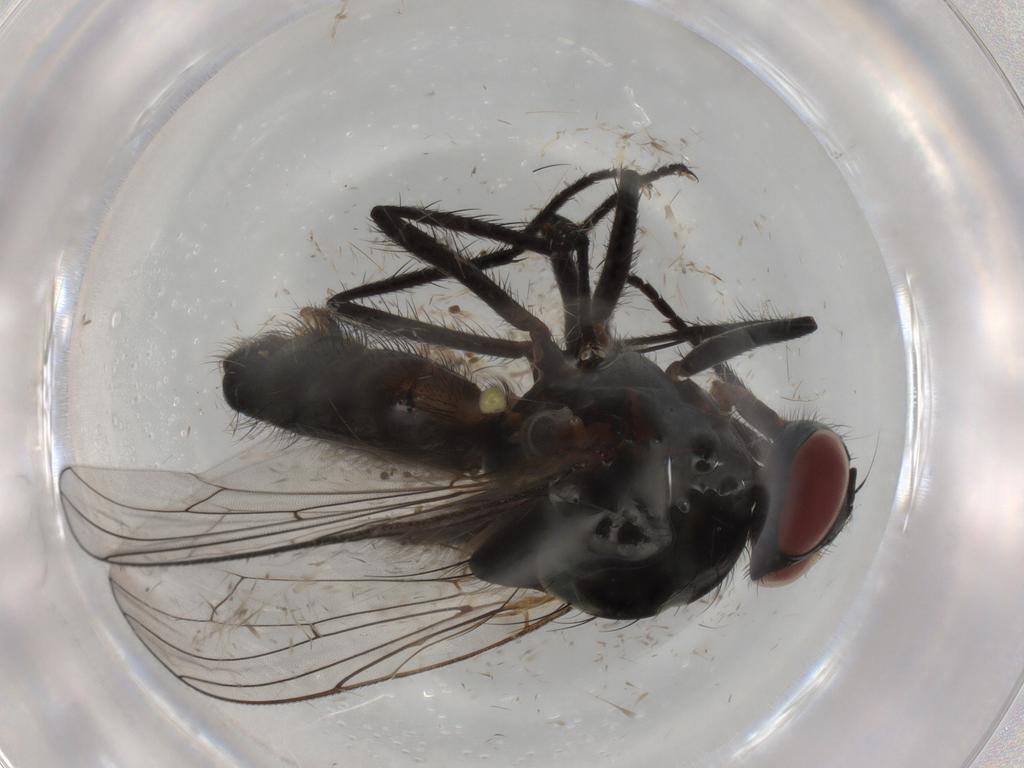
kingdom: Animalia
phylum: Arthropoda
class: Insecta
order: Diptera
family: Anthomyiidae
